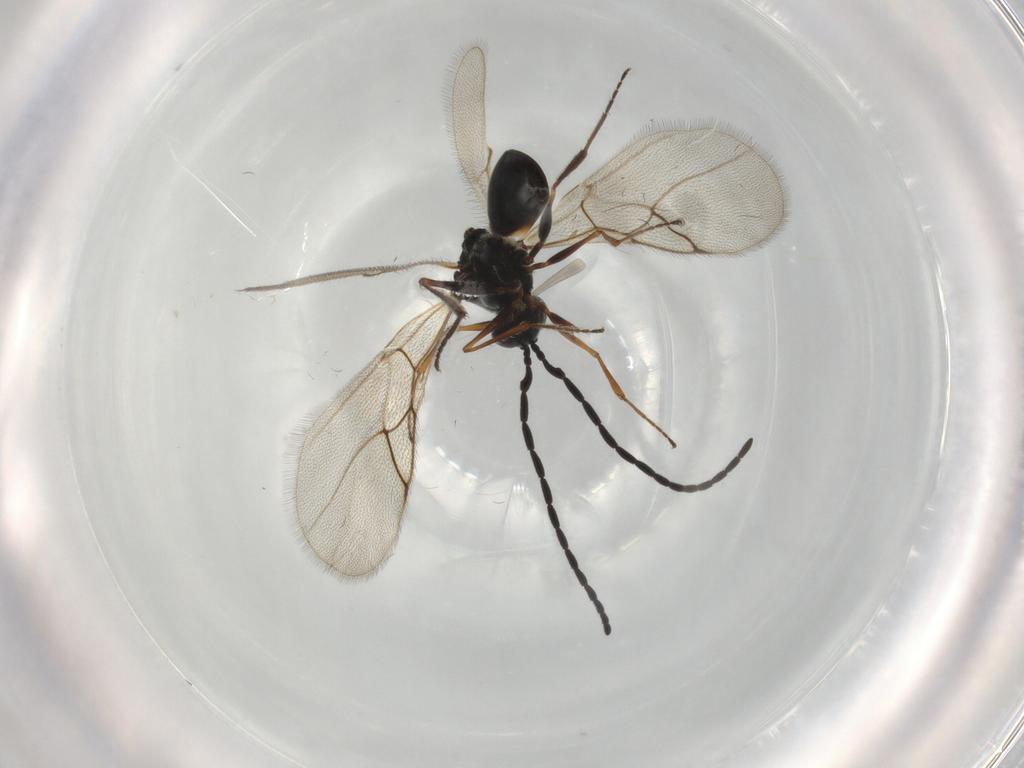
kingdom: Animalia
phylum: Arthropoda
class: Insecta
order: Hymenoptera
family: Figitidae
